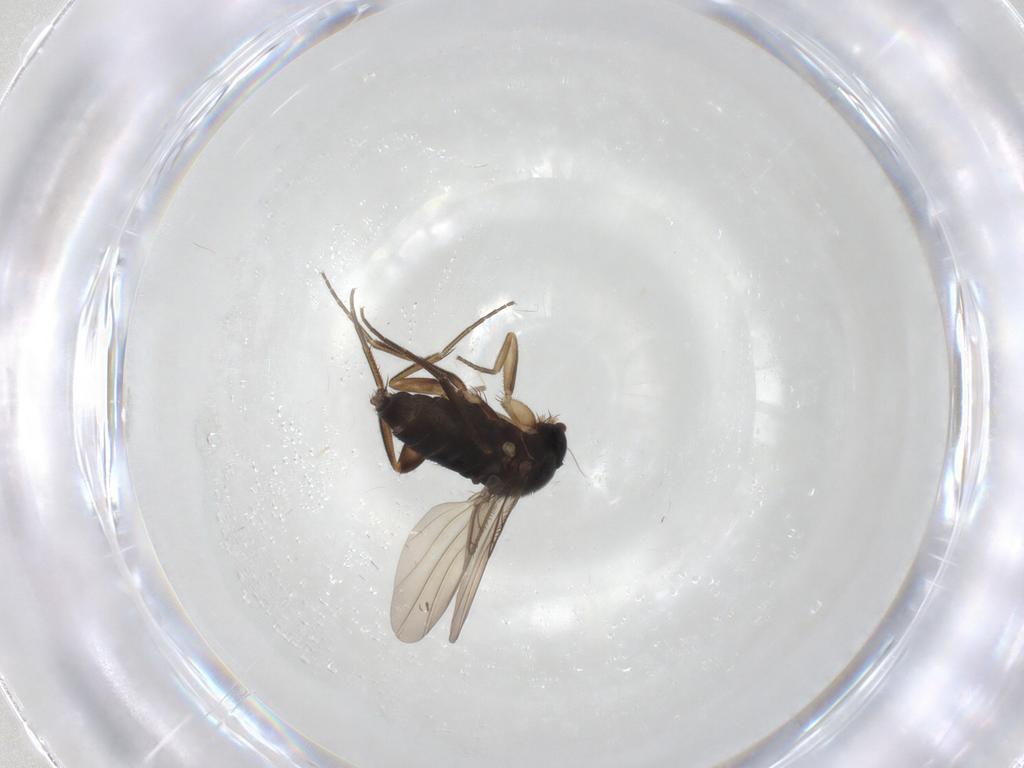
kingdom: Animalia
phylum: Arthropoda
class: Insecta
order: Diptera
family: Phoridae
